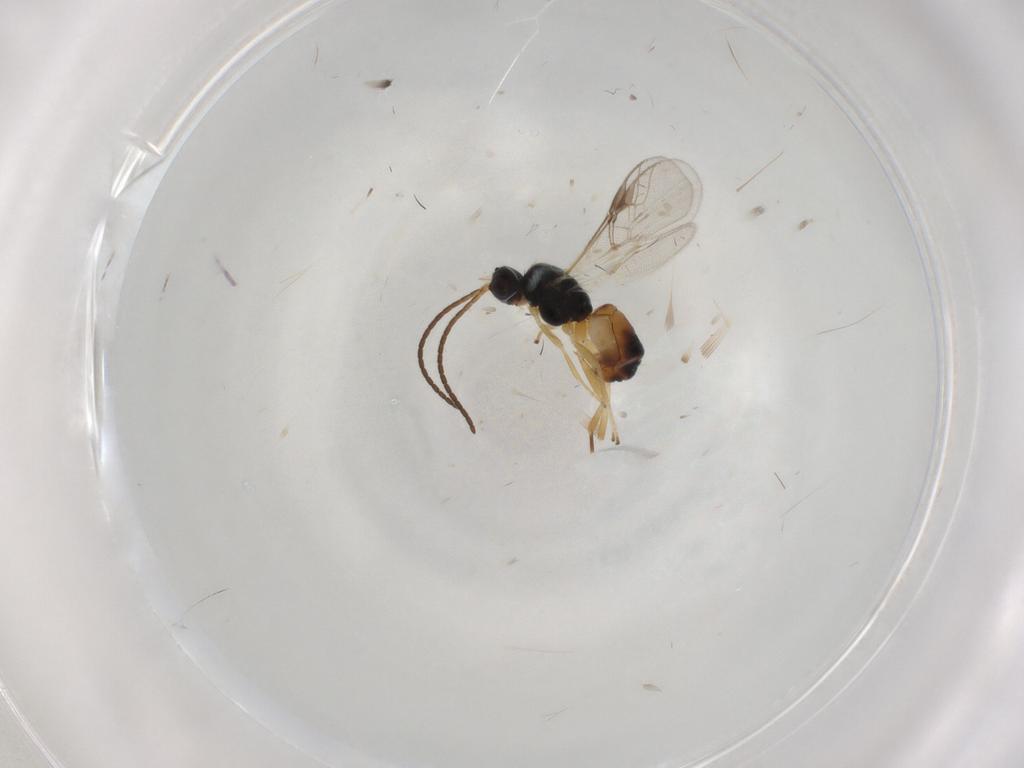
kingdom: Animalia
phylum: Arthropoda
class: Insecta
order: Hymenoptera
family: Braconidae
